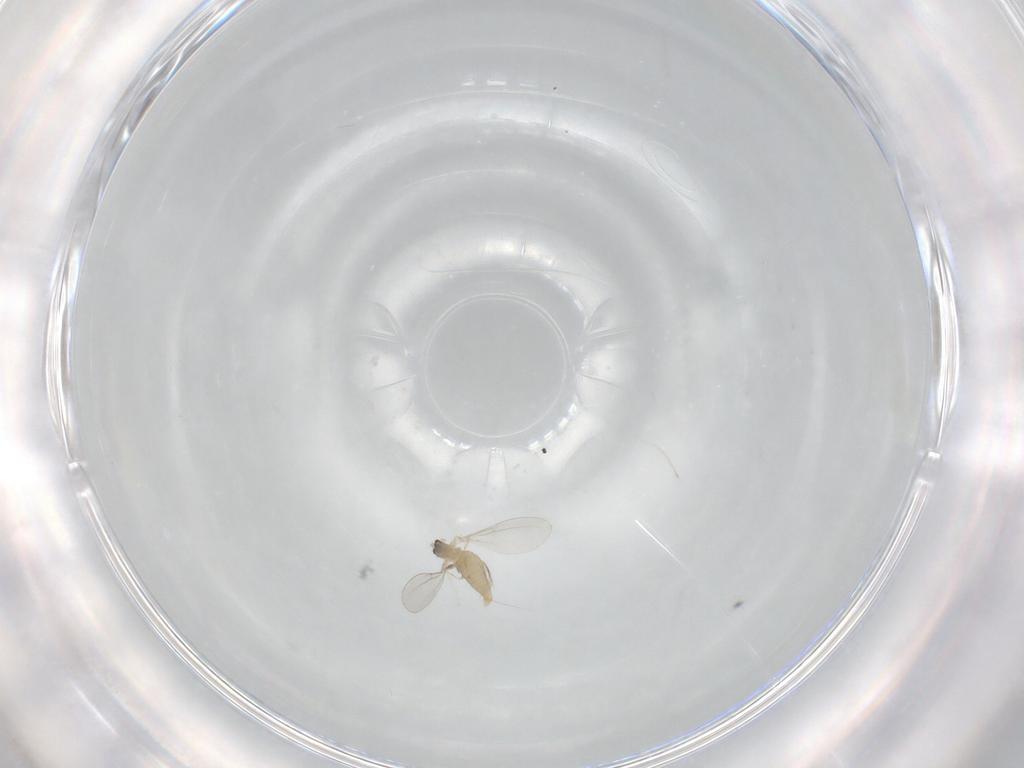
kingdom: Animalia
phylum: Arthropoda
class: Insecta
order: Diptera
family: Cecidomyiidae
